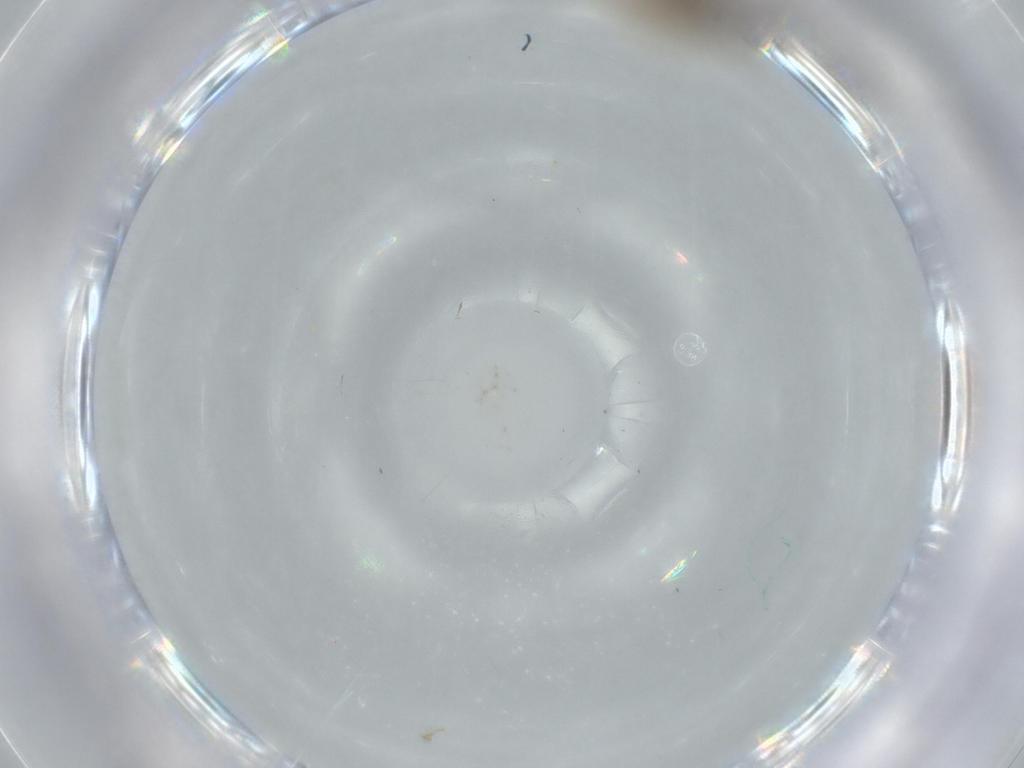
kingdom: Animalia
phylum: Arthropoda
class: Insecta
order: Lepidoptera
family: Bucculatricidae
